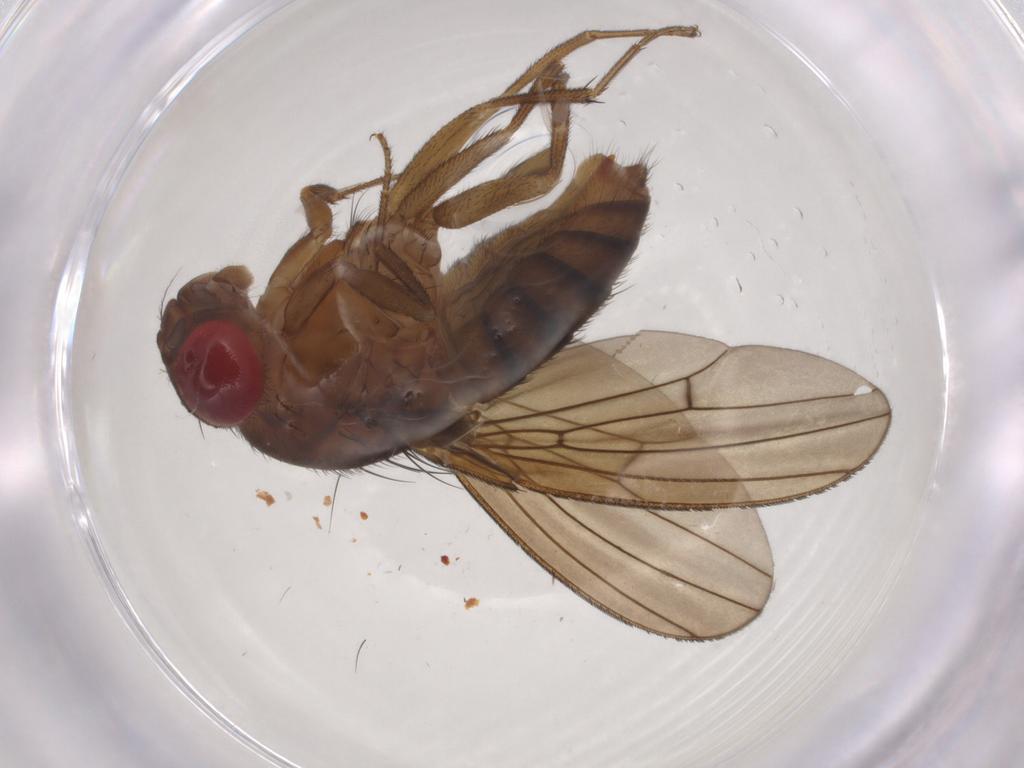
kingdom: Animalia
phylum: Arthropoda
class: Insecta
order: Diptera
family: Drosophilidae
